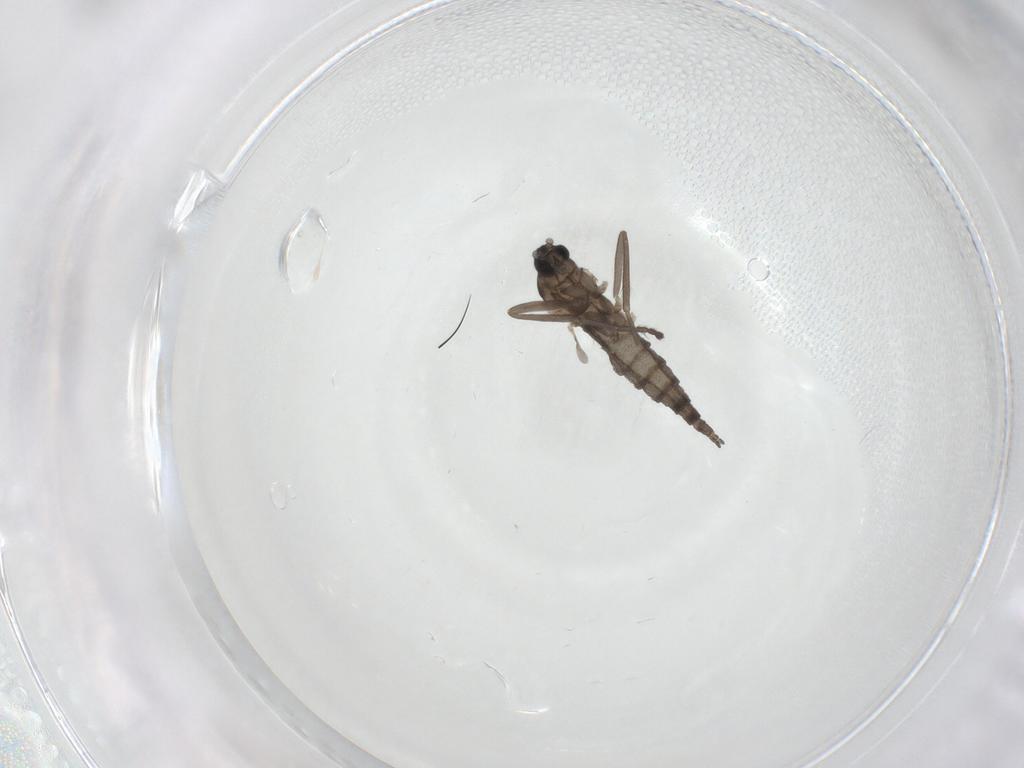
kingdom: Animalia
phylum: Arthropoda
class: Insecta
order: Diptera
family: Cecidomyiidae
